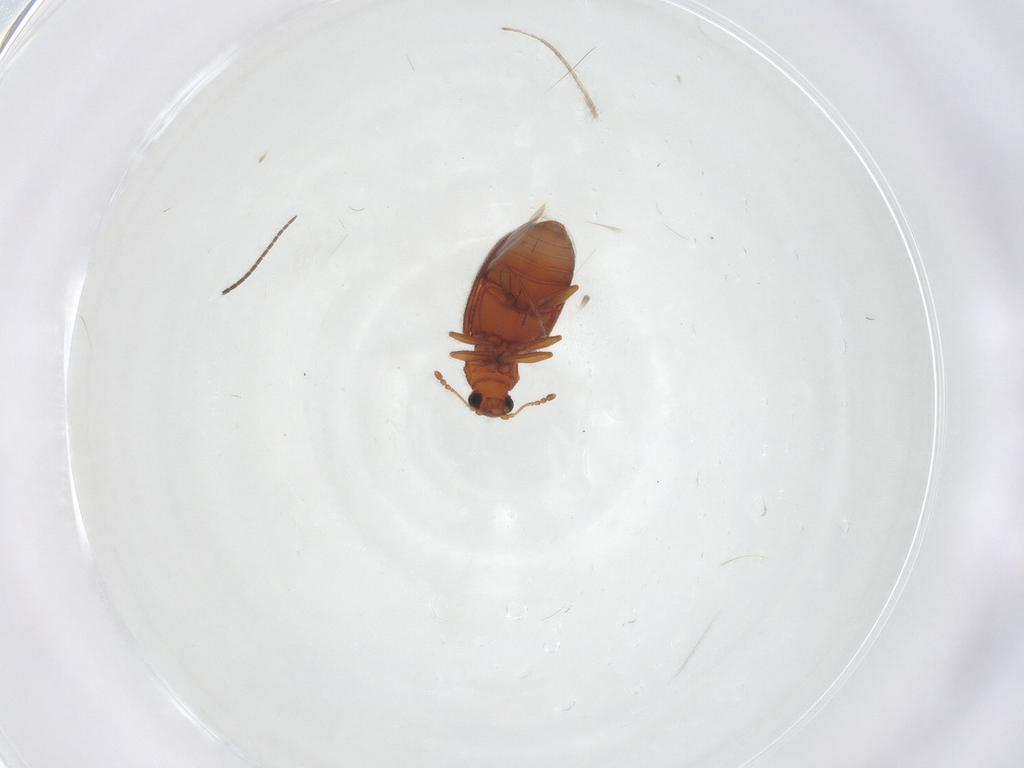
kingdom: Animalia
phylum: Arthropoda
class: Insecta
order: Coleoptera
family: Latridiidae
